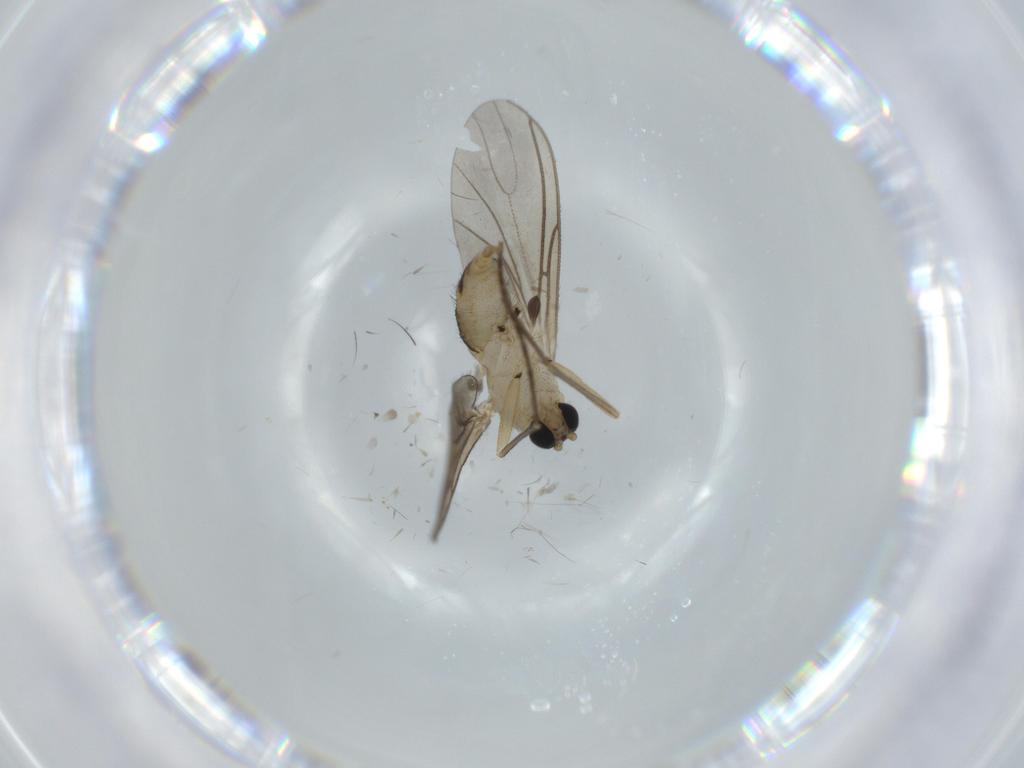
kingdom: Animalia
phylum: Arthropoda
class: Insecta
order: Diptera
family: Sciaridae
